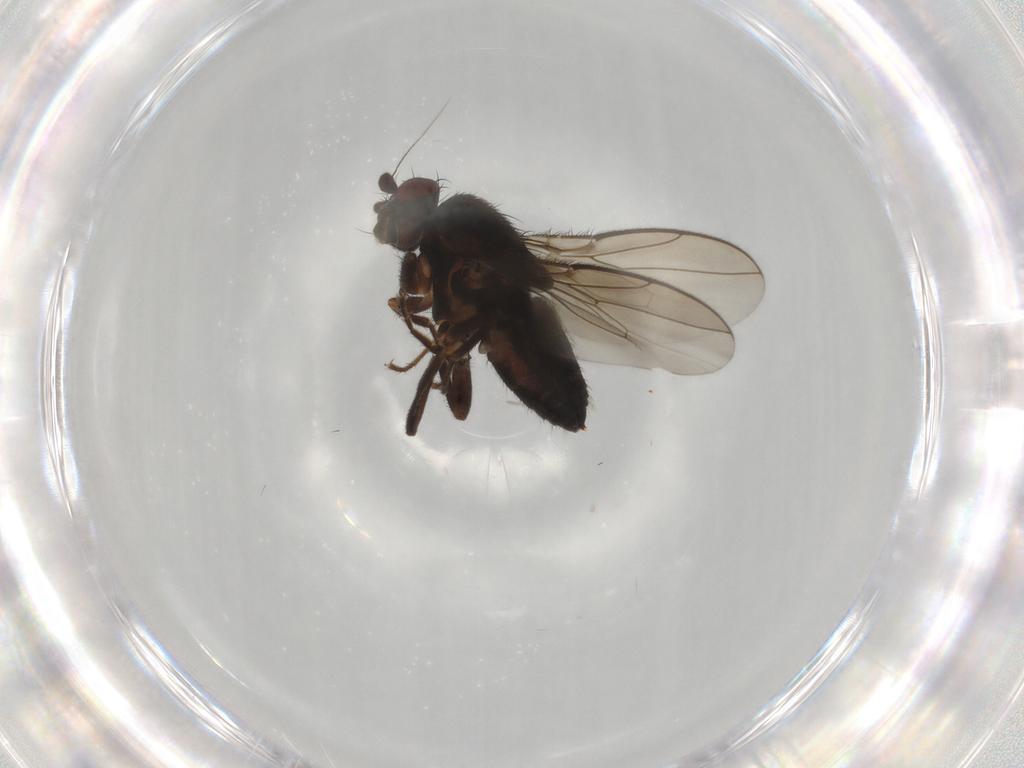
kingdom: Animalia
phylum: Arthropoda
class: Insecta
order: Diptera
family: Sphaeroceridae
